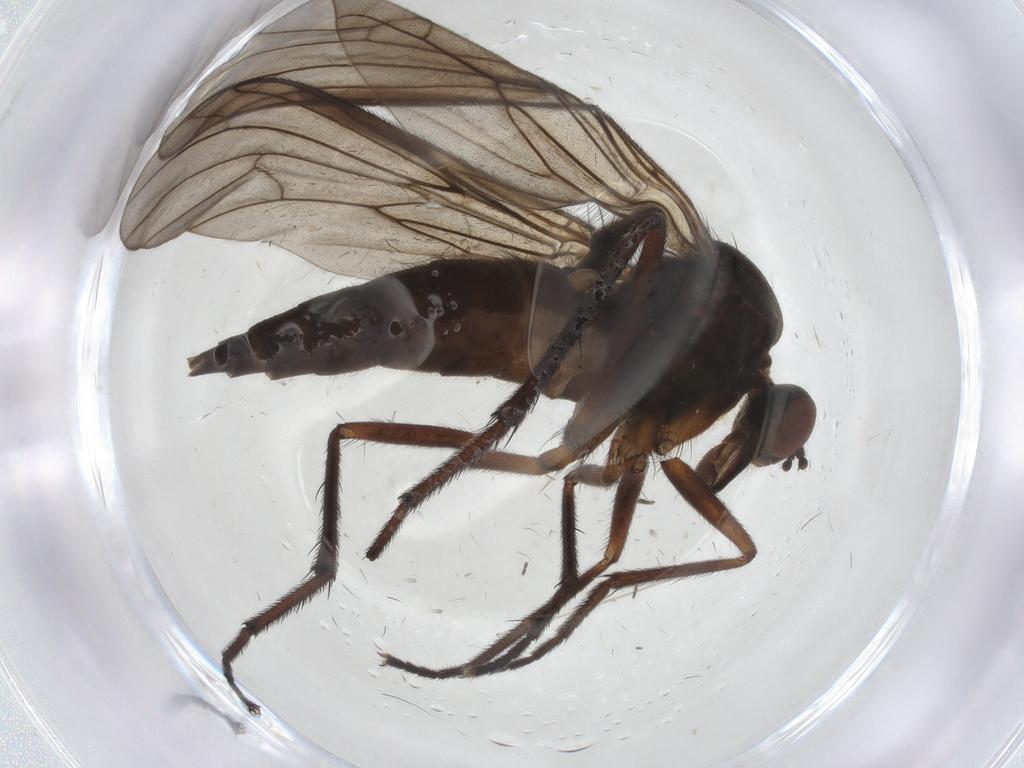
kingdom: Animalia
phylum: Arthropoda
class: Insecta
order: Diptera
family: Empididae
